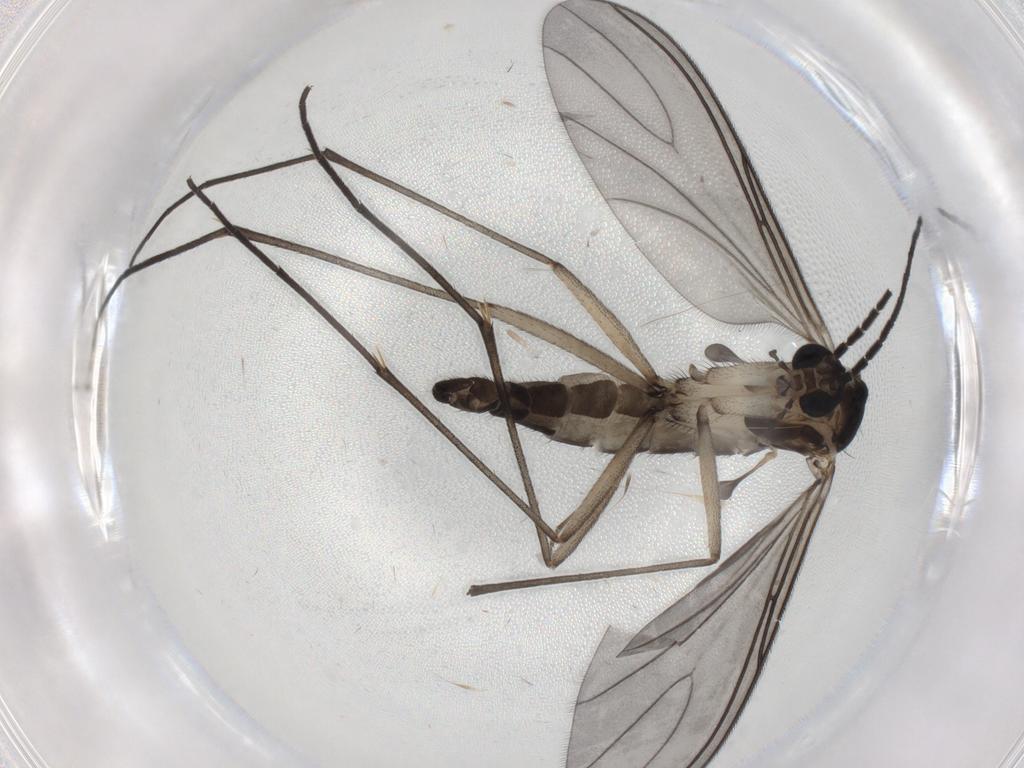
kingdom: Animalia
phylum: Arthropoda
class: Insecta
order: Diptera
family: Sciaridae
